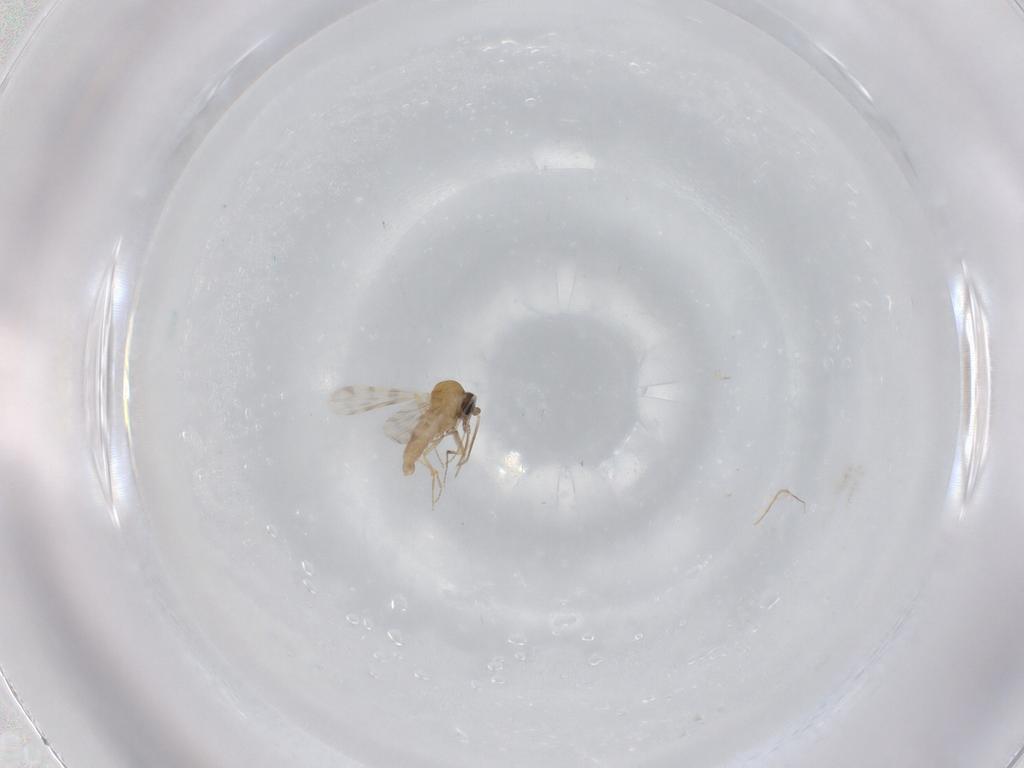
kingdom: Animalia
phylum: Arthropoda
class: Insecta
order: Diptera
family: Ceratopogonidae
